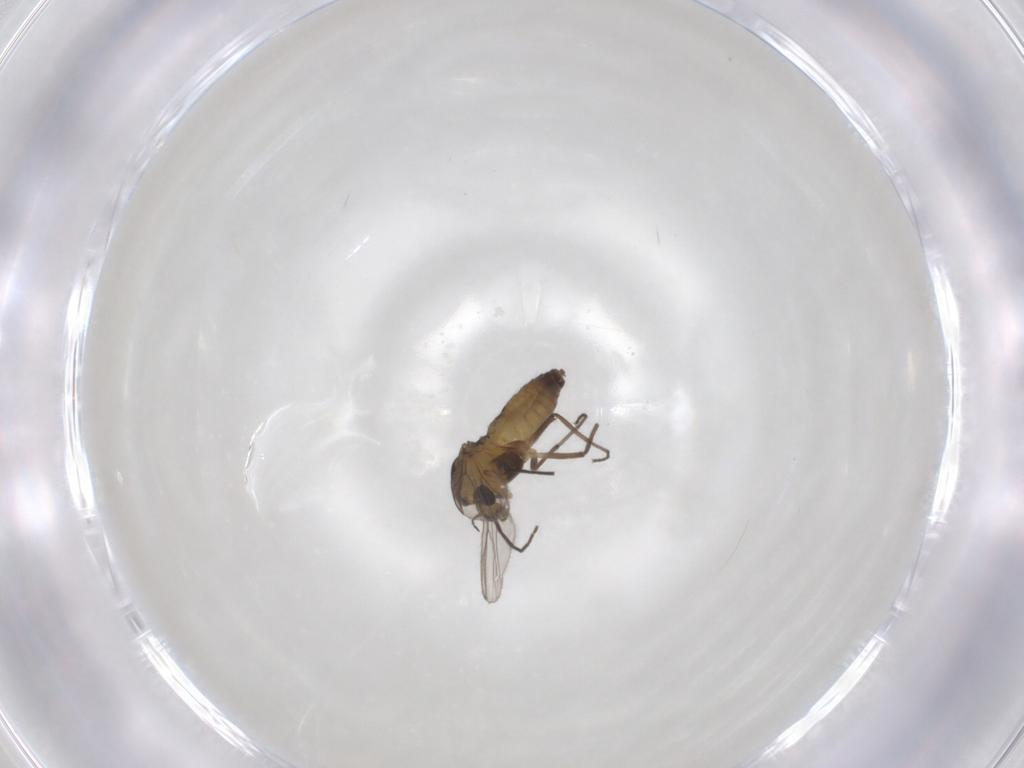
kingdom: Animalia
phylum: Arthropoda
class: Insecta
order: Diptera
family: Chironomidae
